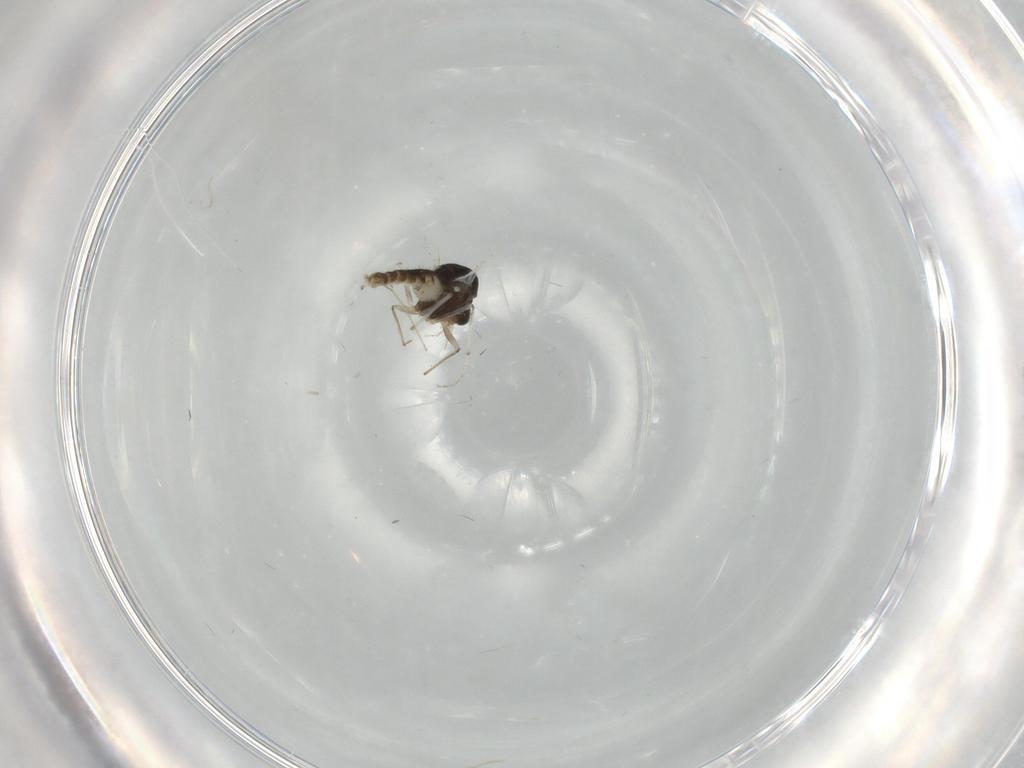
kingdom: Animalia
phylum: Arthropoda
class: Insecta
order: Diptera
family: Chironomidae
